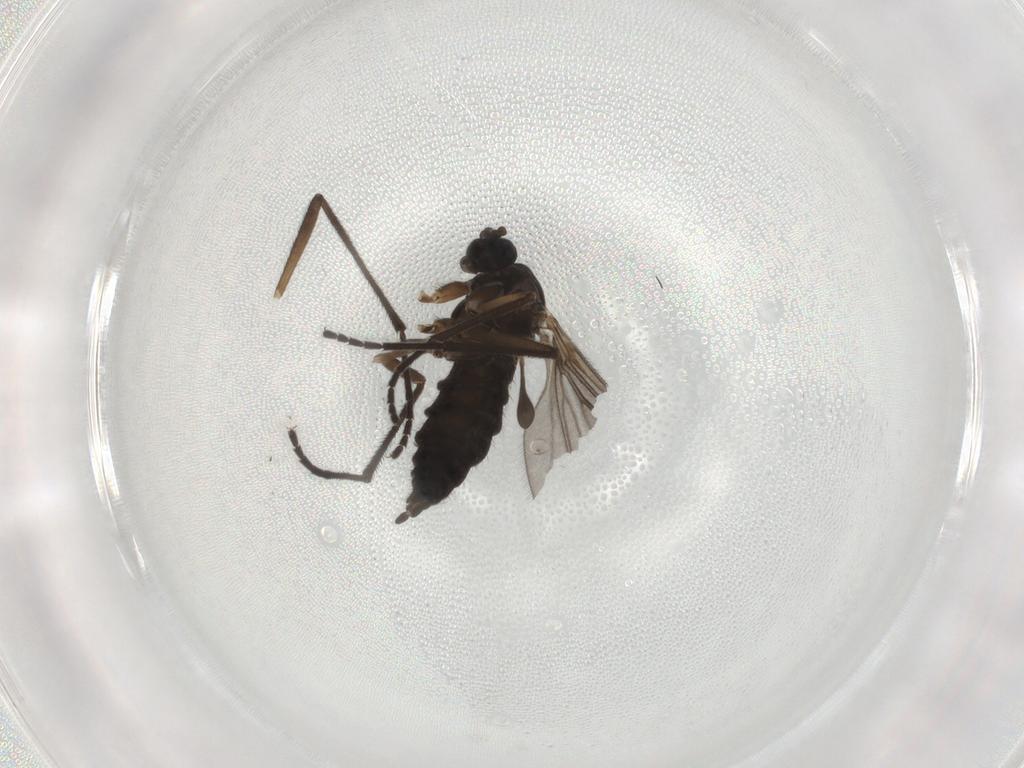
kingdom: Animalia
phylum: Arthropoda
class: Insecta
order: Diptera
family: Sciaridae
